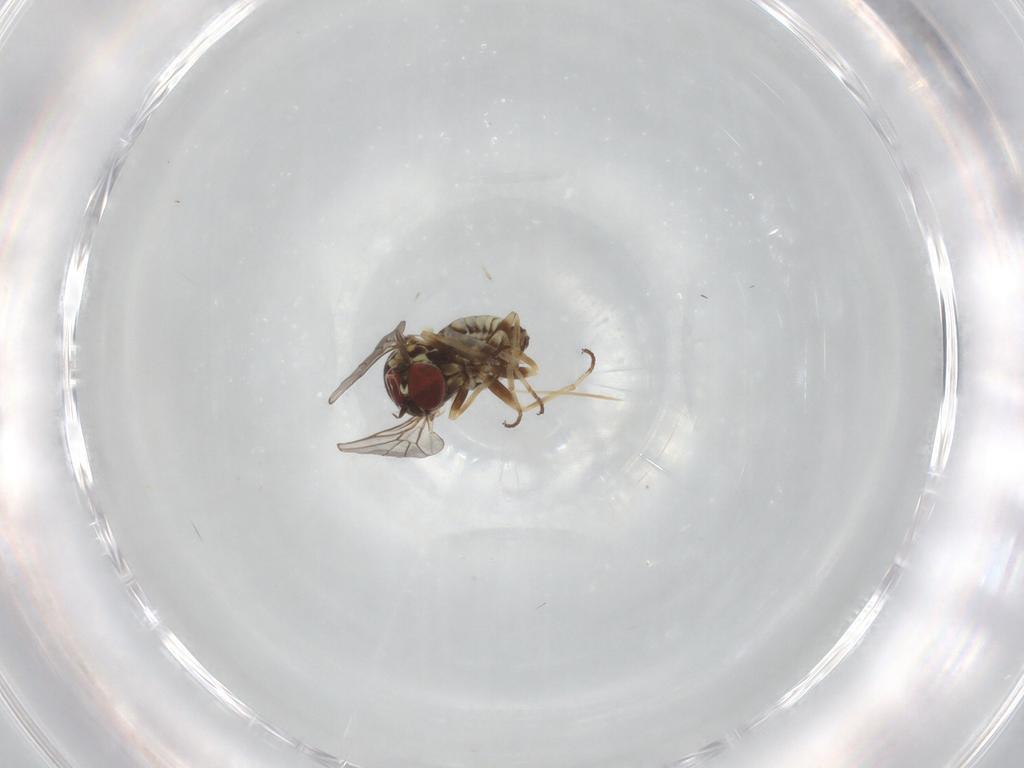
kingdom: Animalia
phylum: Arthropoda
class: Insecta
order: Diptera
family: Bombyliidae
